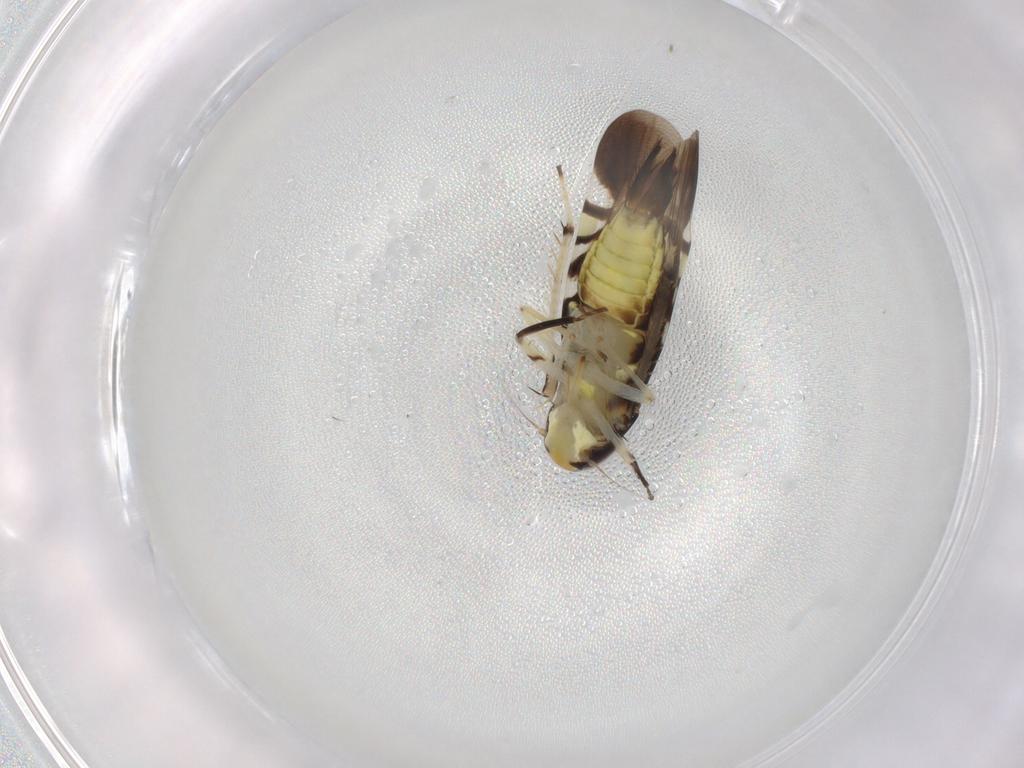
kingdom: Animalia
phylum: Arthropoda
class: Insecta
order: Hemiptera
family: Cicadellidae
